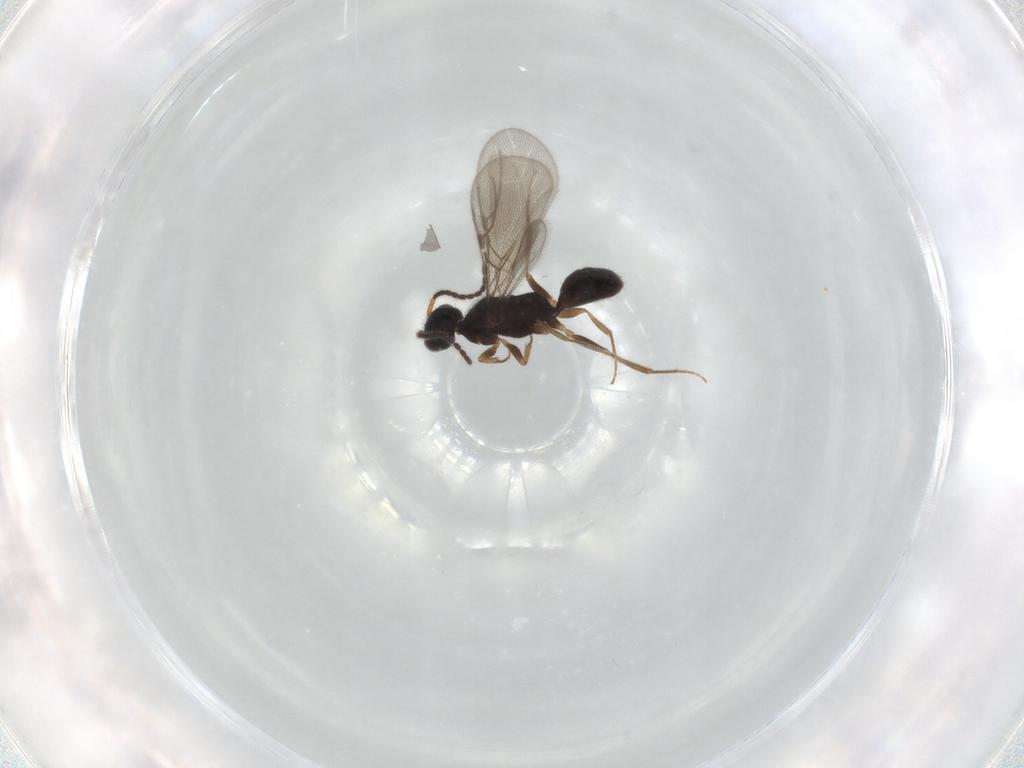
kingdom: Animalia
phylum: Arthropoda
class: Insecta
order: Hymenoptera
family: Bethylidae
